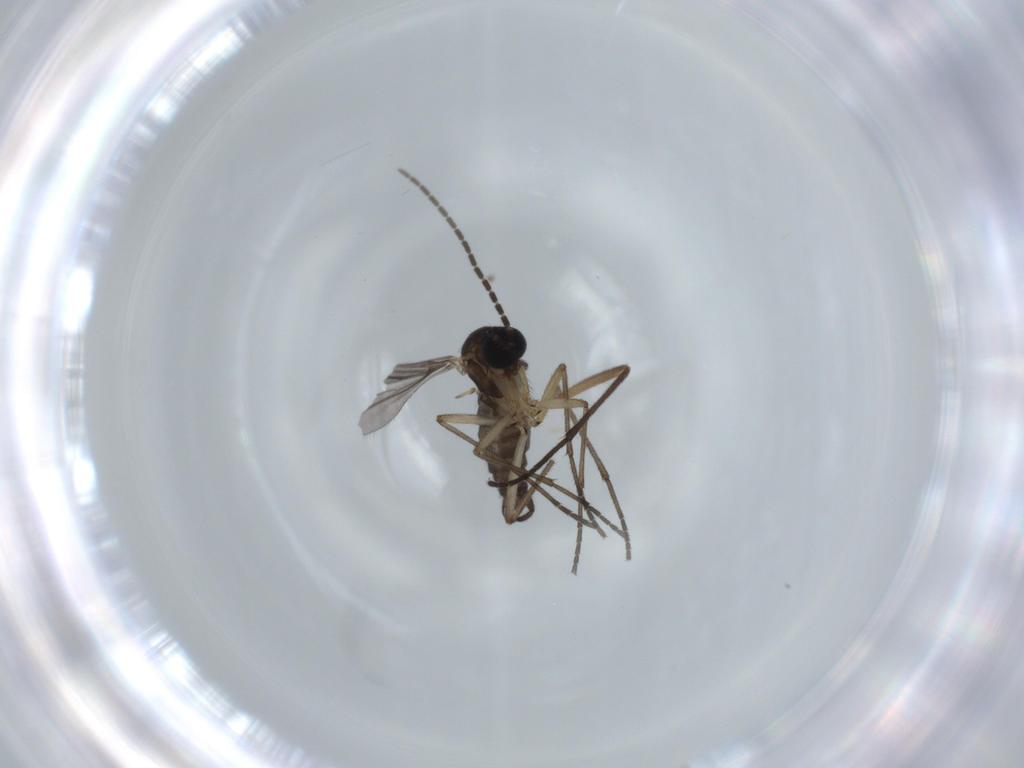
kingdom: Animalia
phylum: Arthropoda
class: Insecta
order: Diptera
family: Sciaridae
